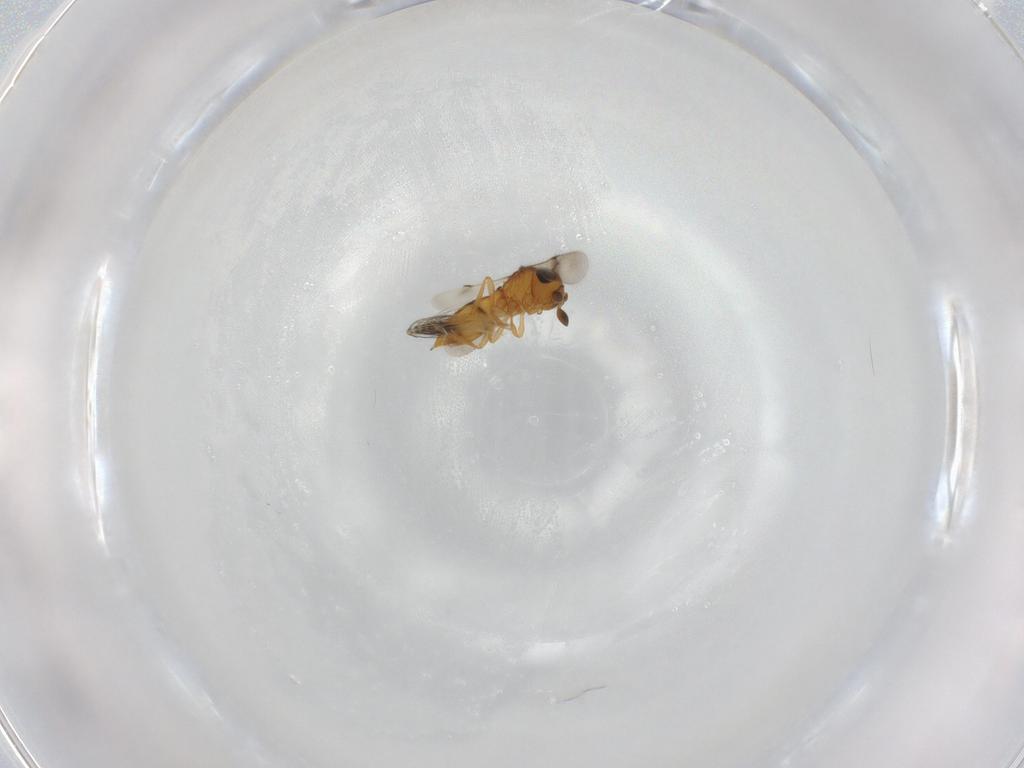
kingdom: Animalia
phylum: Arthropoda
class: Insecta
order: Hymenoptera
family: Scelionidae
